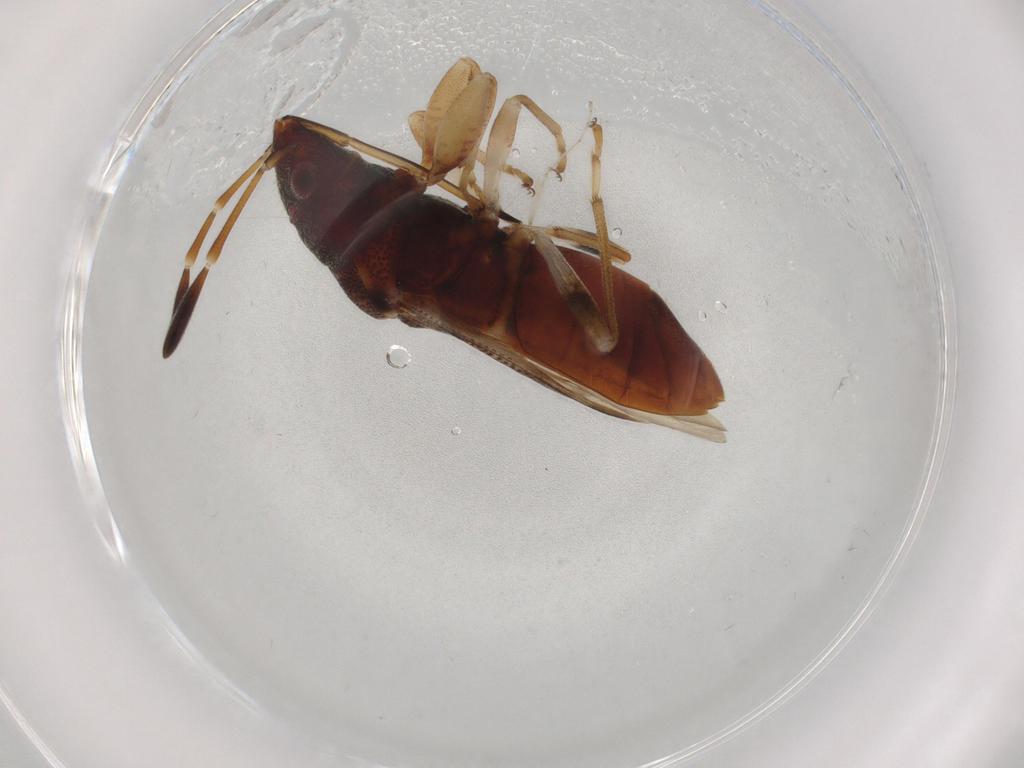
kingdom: Animalia
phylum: Arthropoda
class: Insecta
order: Hemiptera
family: Rhyparochromidae
